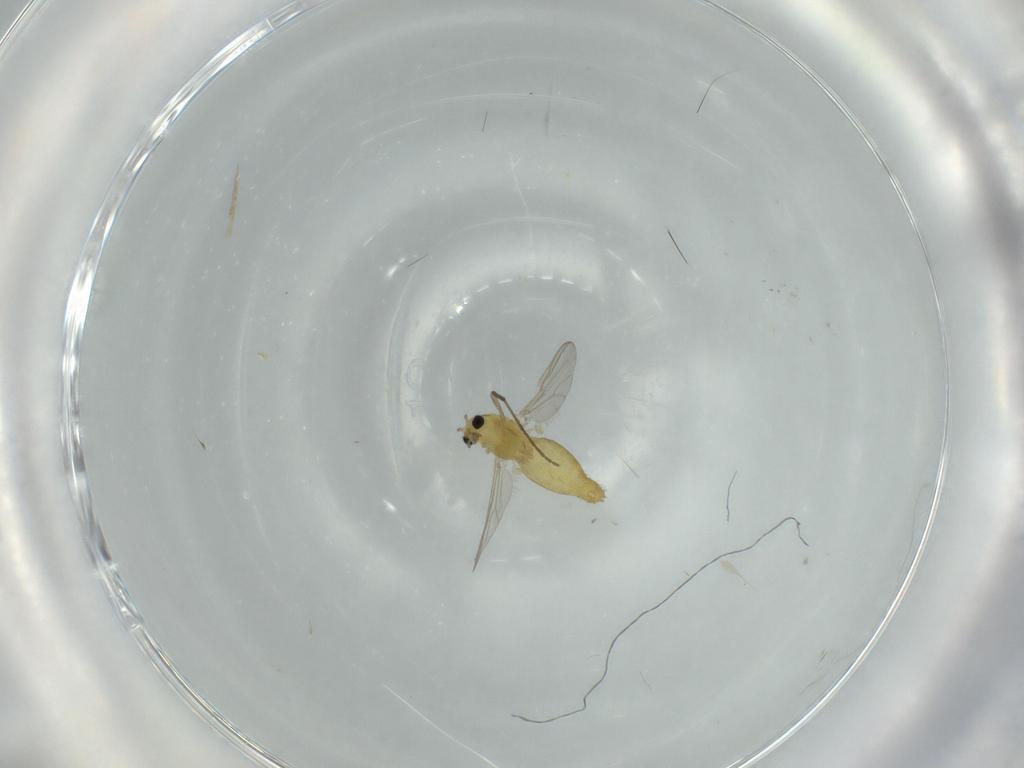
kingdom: Animalia
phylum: Arthropoda
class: Insecta
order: Diptera
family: Chironomidae
